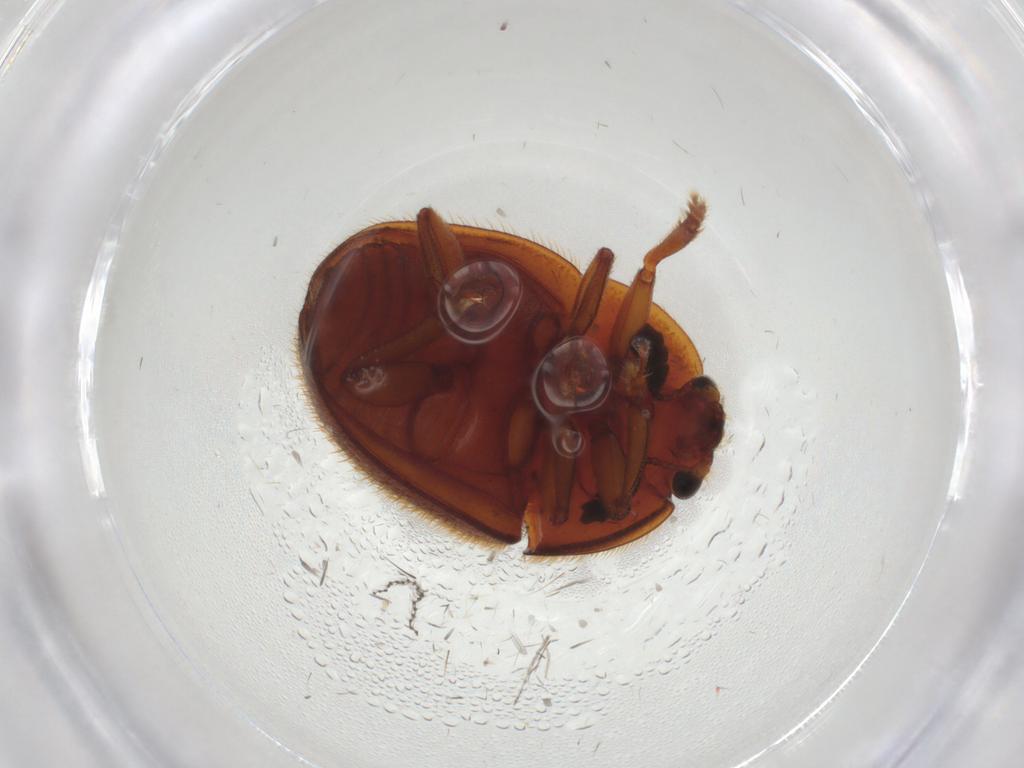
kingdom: Animalia
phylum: Arthropoda
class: Insecta
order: Coleoptera
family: Nitidulidae
